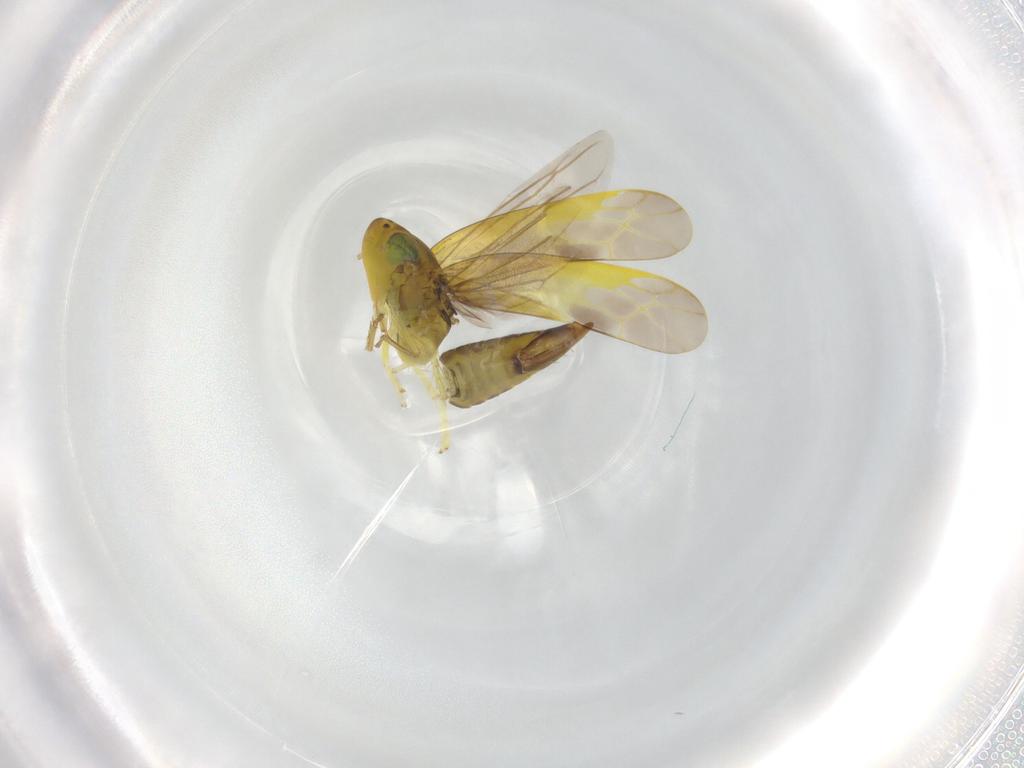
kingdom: Animalia
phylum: Arthropoda
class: Insecta
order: Hemiptera
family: Cicadellidae
